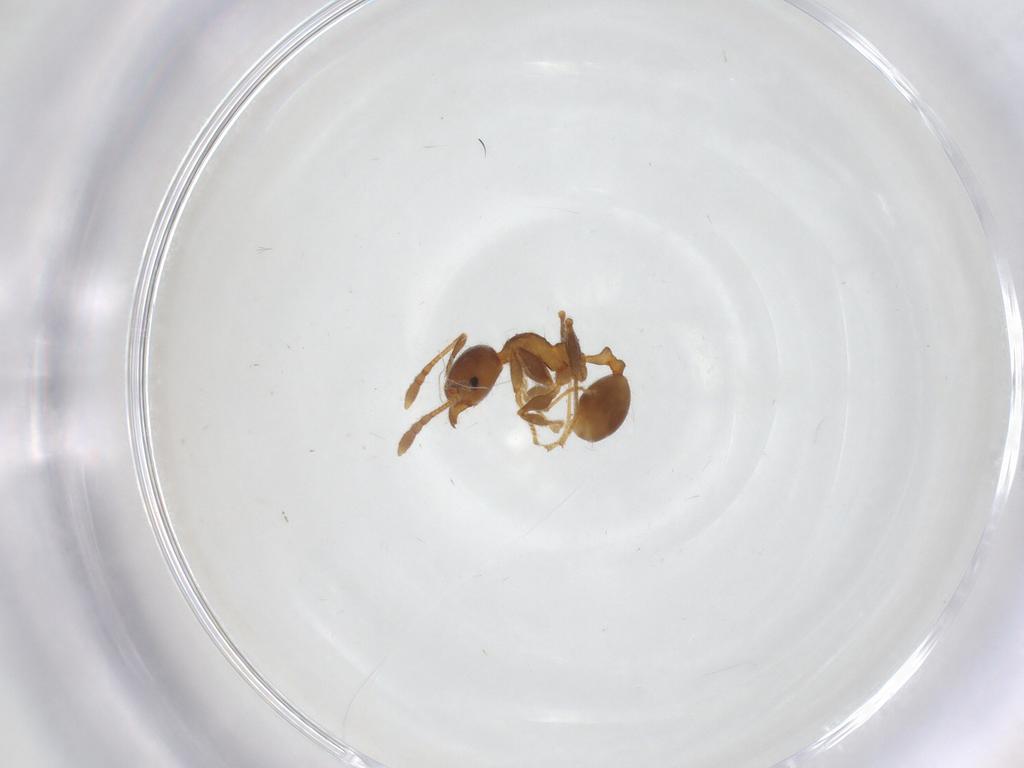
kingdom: Animalia
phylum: Arthropoda
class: Insecta
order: Hymenoptera
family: Formicidae
